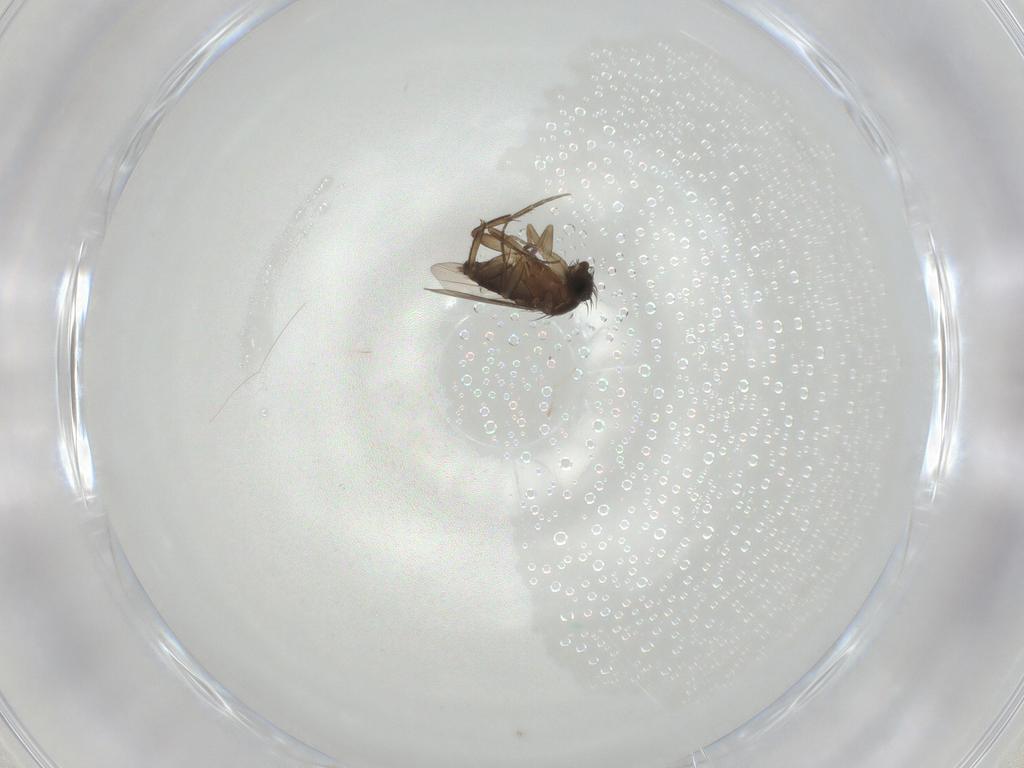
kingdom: Animalia
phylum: Arthropoda
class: Insecta
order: Diptera
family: Phoridae
